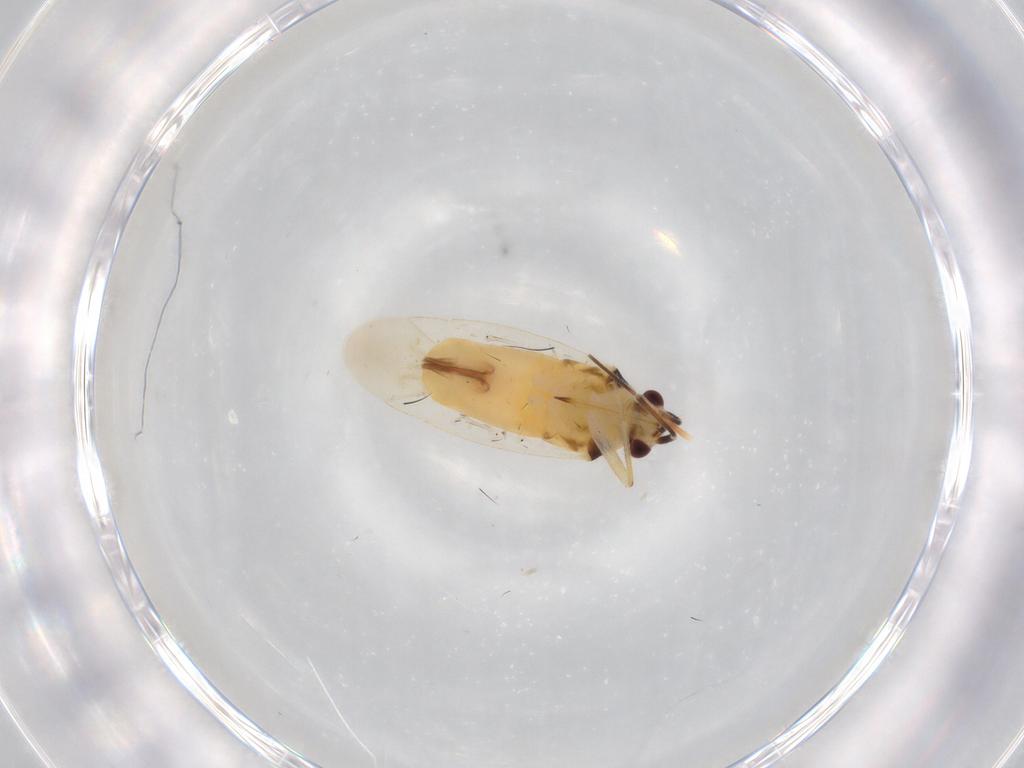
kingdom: Animalia
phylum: Arthropoda
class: Insecta
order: Hemiptera
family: Miridae
